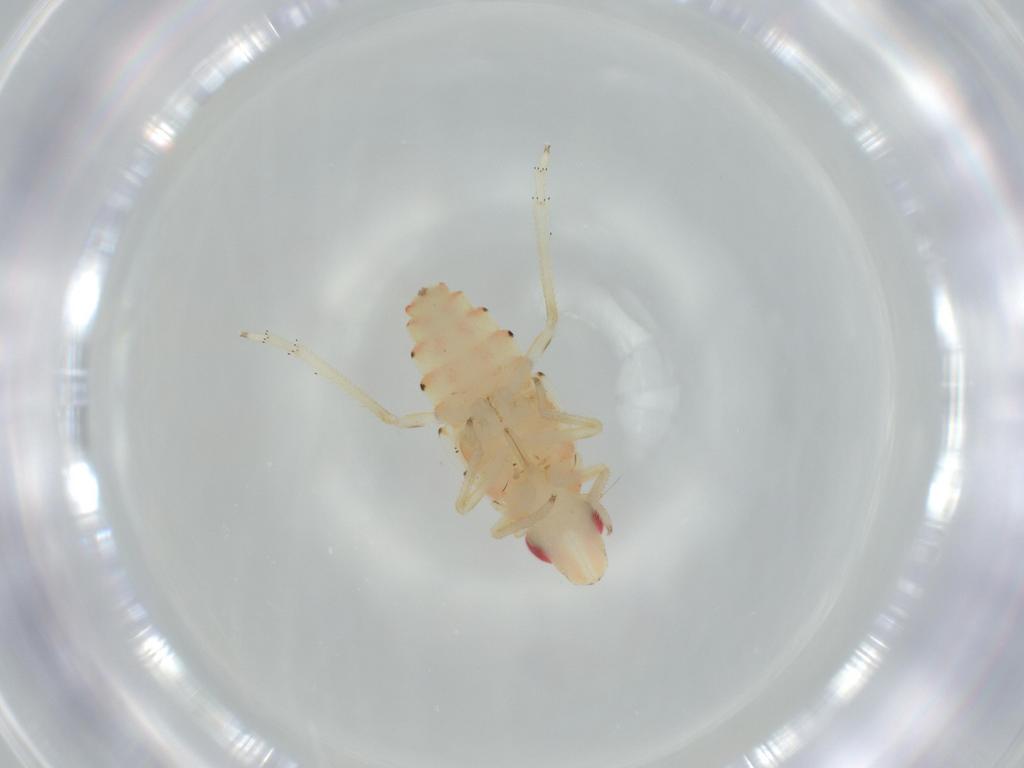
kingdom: Animalia
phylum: Arthropoda
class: Insecta
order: Hemiptera
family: Tropiduchidae
